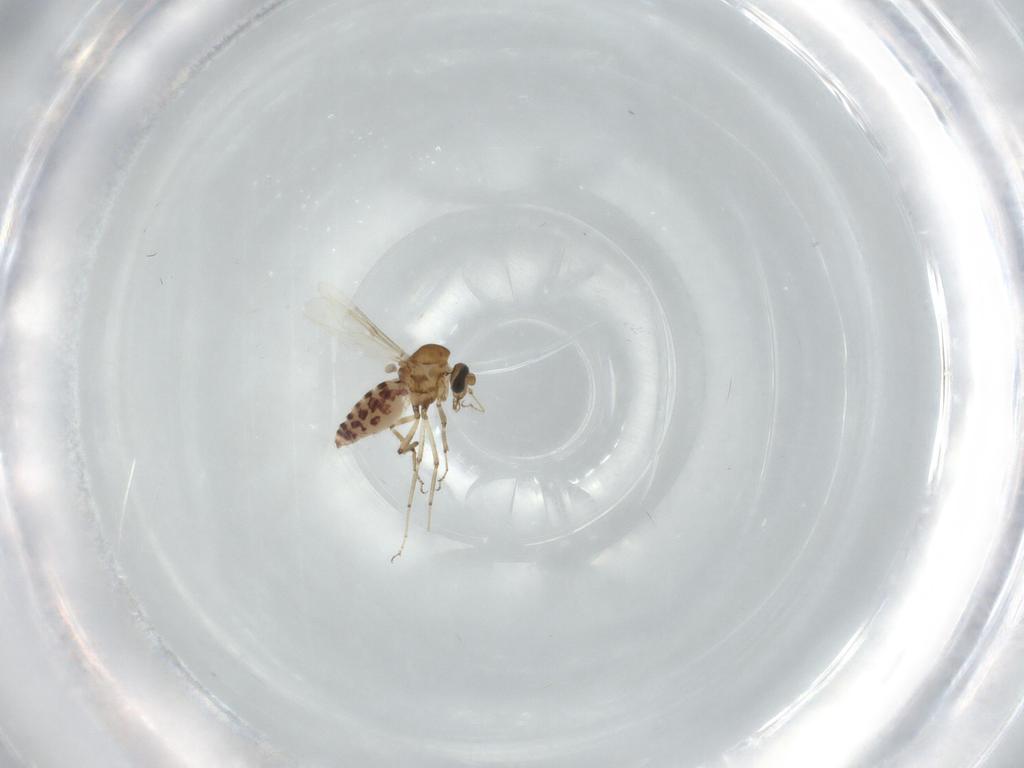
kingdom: Animalia
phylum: Arthropoda
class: Insecta
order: Diptera
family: Ceratopogonidae
